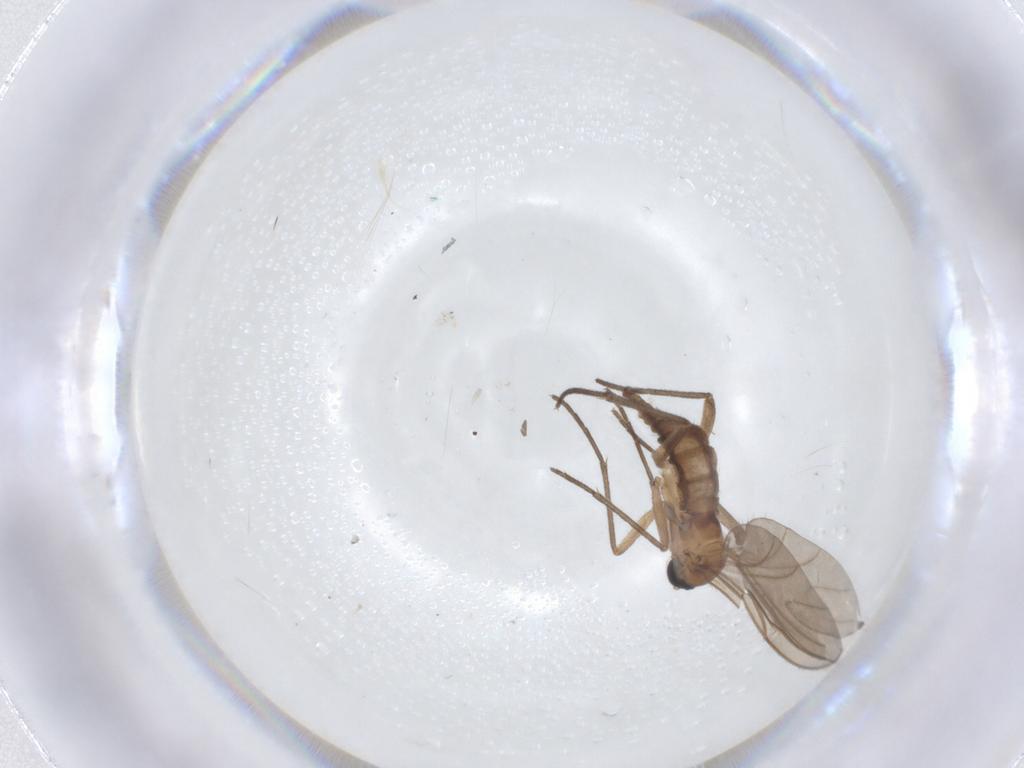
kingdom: Animalia
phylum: Arthropoda
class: Insecta
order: Diptera
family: Sciaridae
